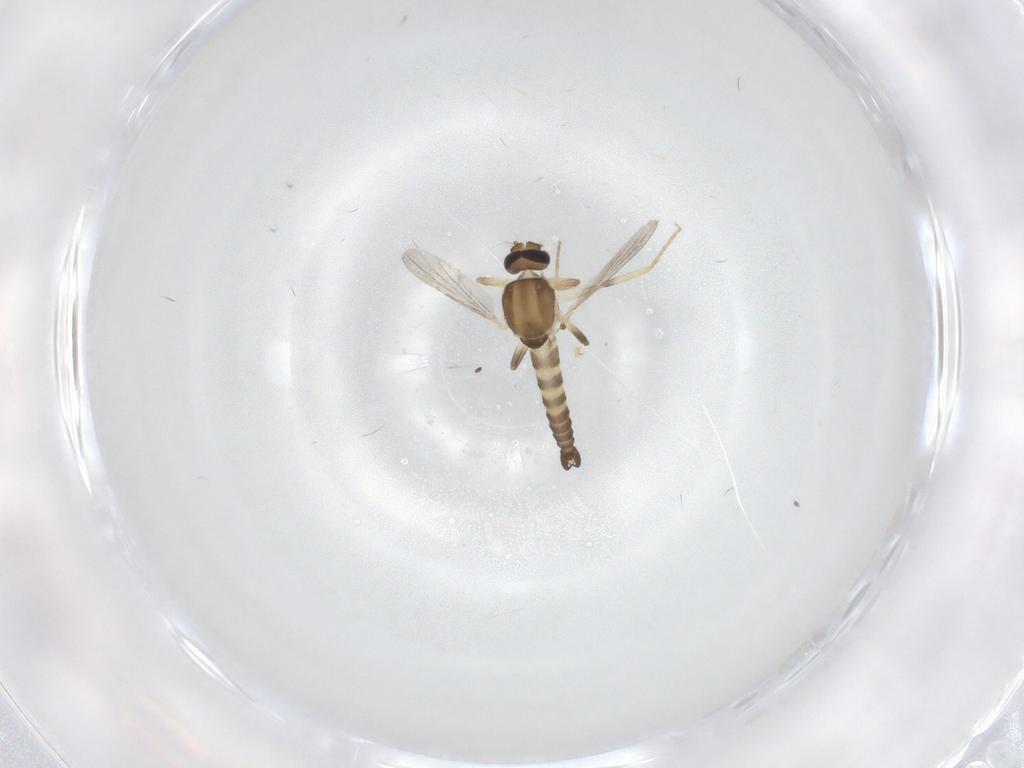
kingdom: Animalia
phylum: Arthropoda
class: Insecta
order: Diptera
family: Ceratopogonidae
